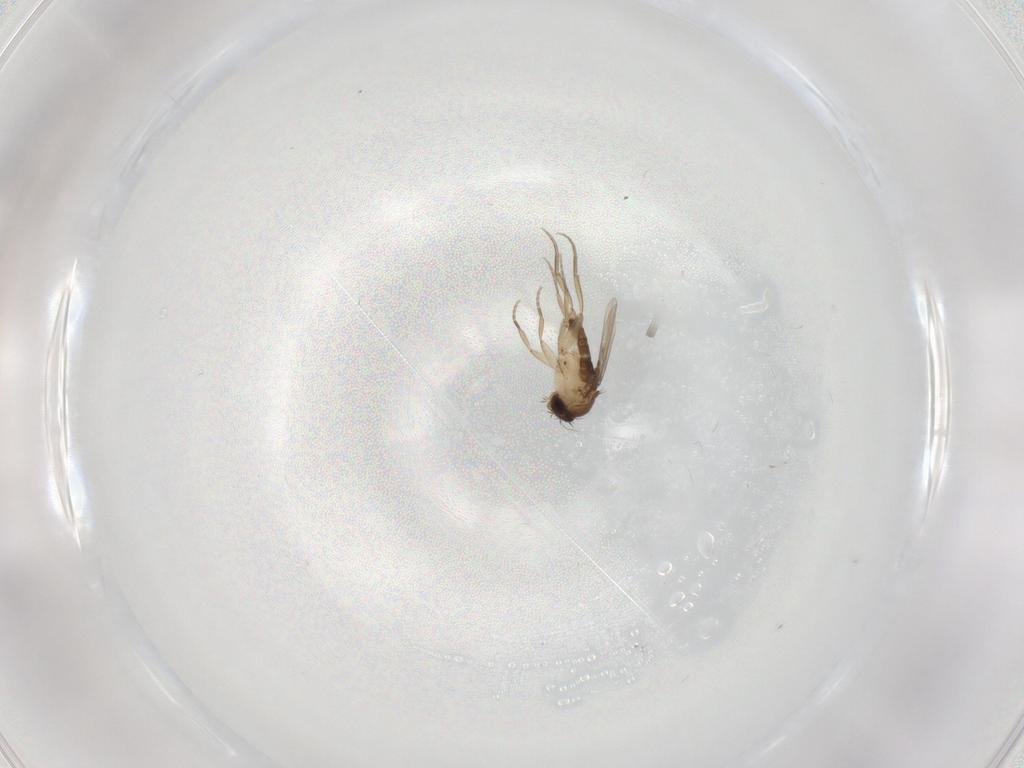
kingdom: Animalia
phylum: Arthropoda
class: Insecta
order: Diptera
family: Phoridae
